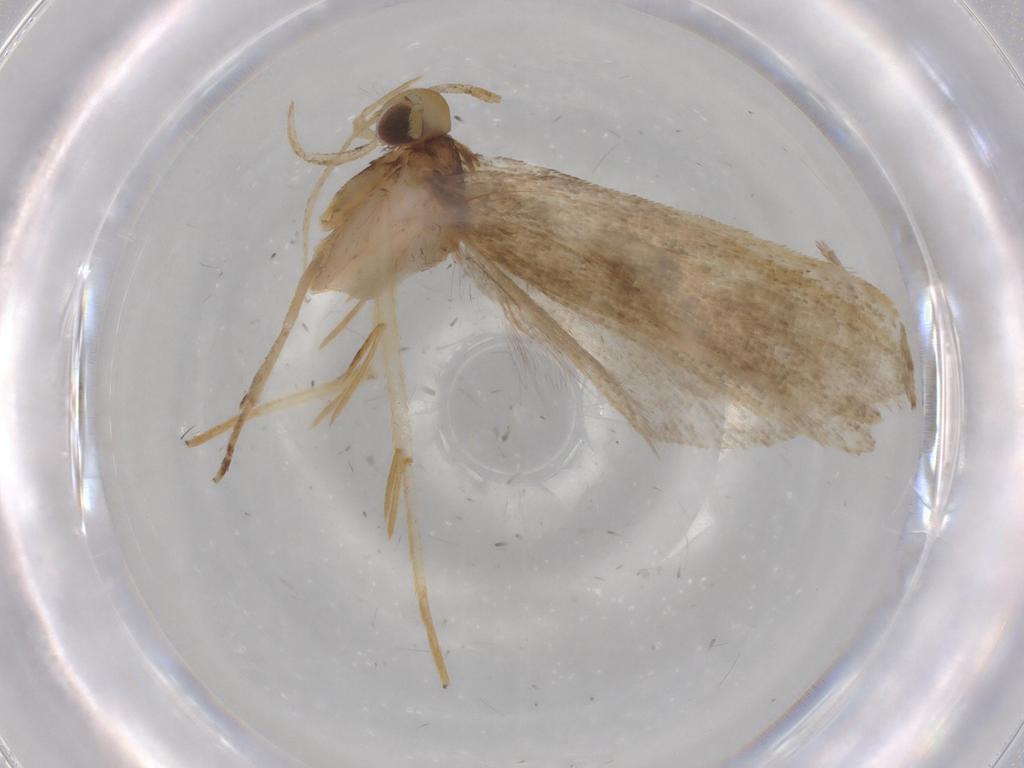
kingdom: Animalia
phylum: Arthropoda
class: Insecta
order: Lepidoptera
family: Autostichidae
